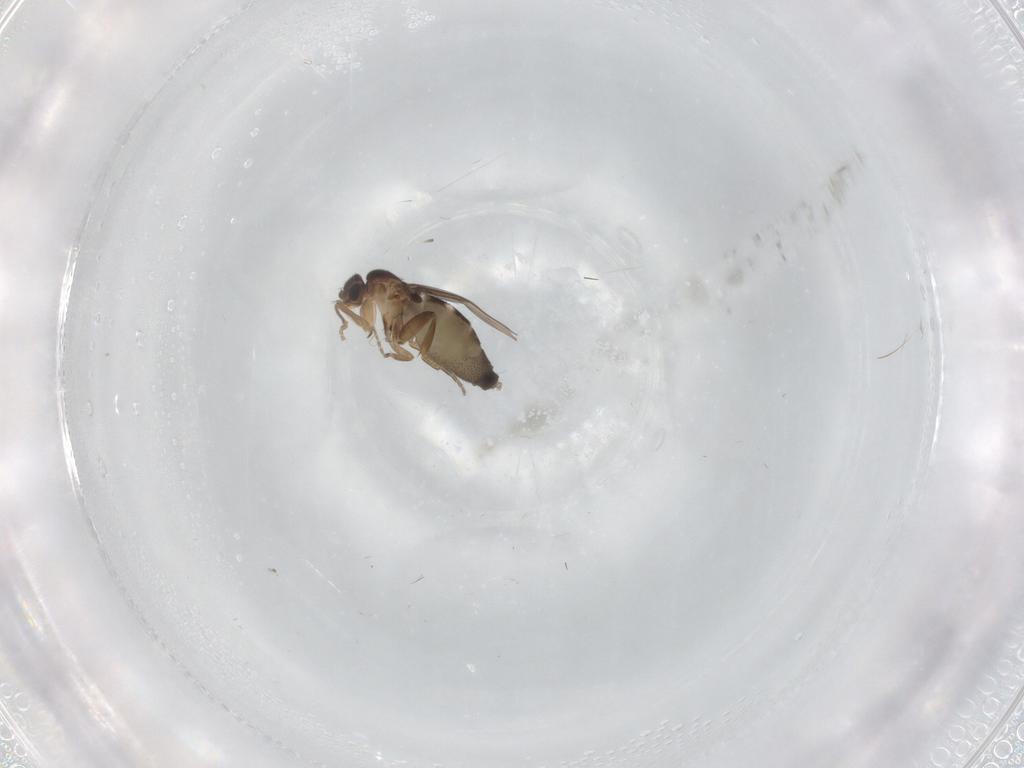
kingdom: Animalia
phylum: Arthropoda
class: Insecta
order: Diptera
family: Phoridae
